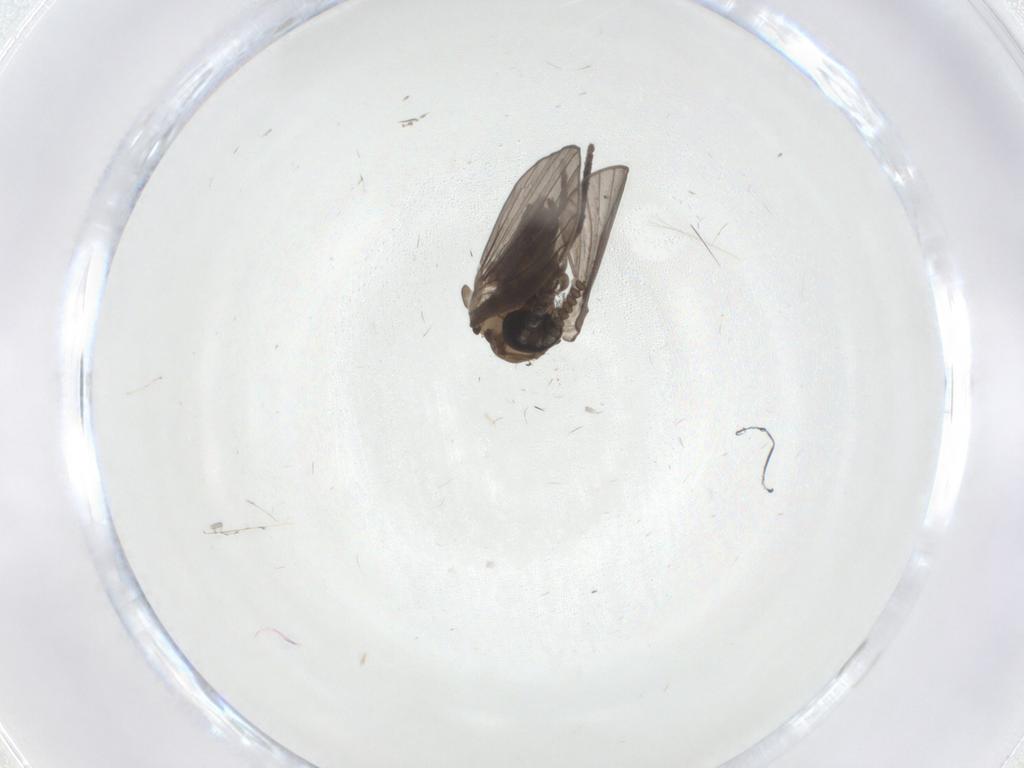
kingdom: Animalia
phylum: Arthropoda
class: Insecta
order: Diptera
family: Psychodidae
